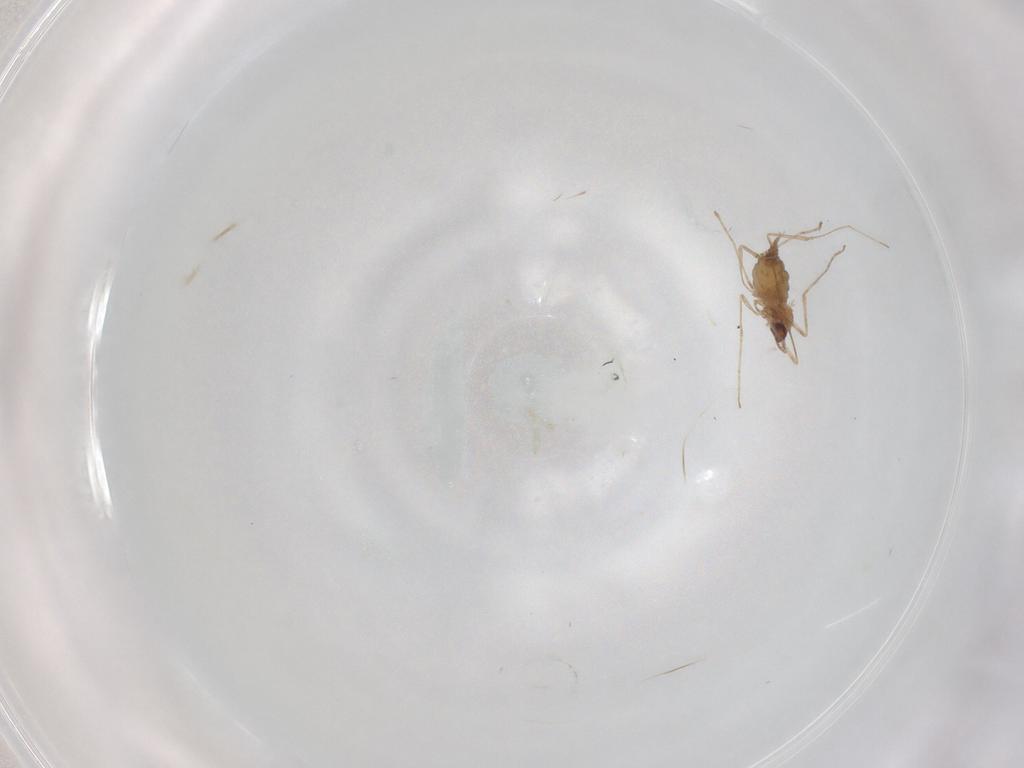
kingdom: Animalia
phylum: Arthropoda
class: Insecta
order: Diptera
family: Cecidomyiidae
